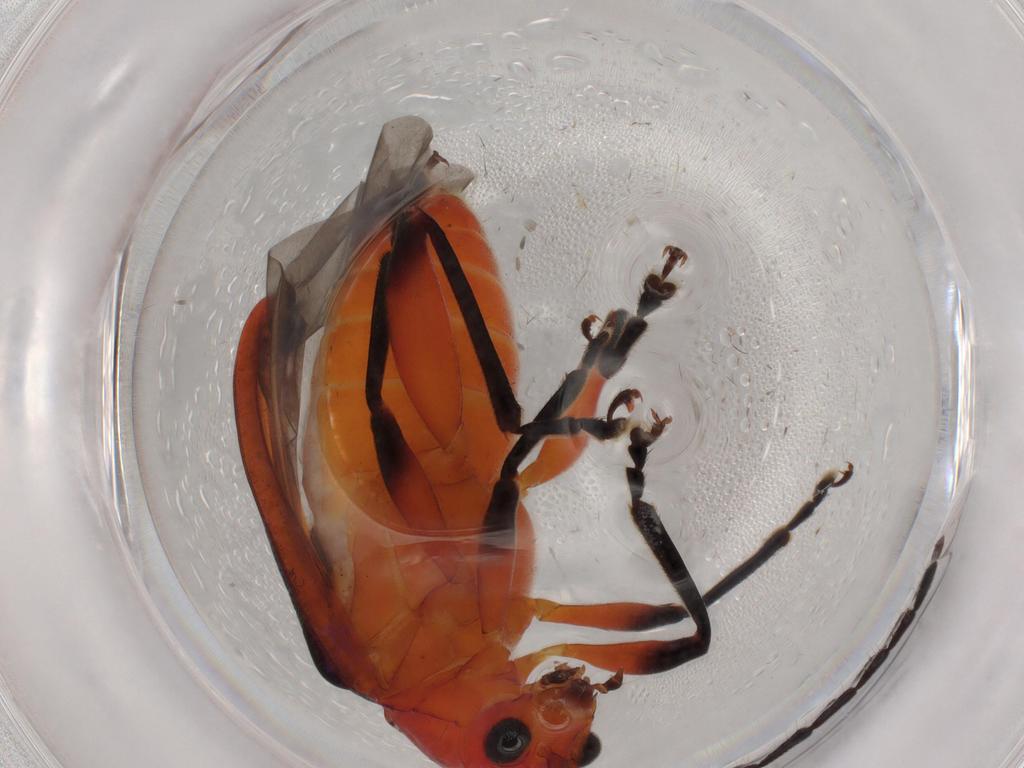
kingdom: Animalia
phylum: Arthropoda
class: Insecta
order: Coleoptera
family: Chrysomelidae
